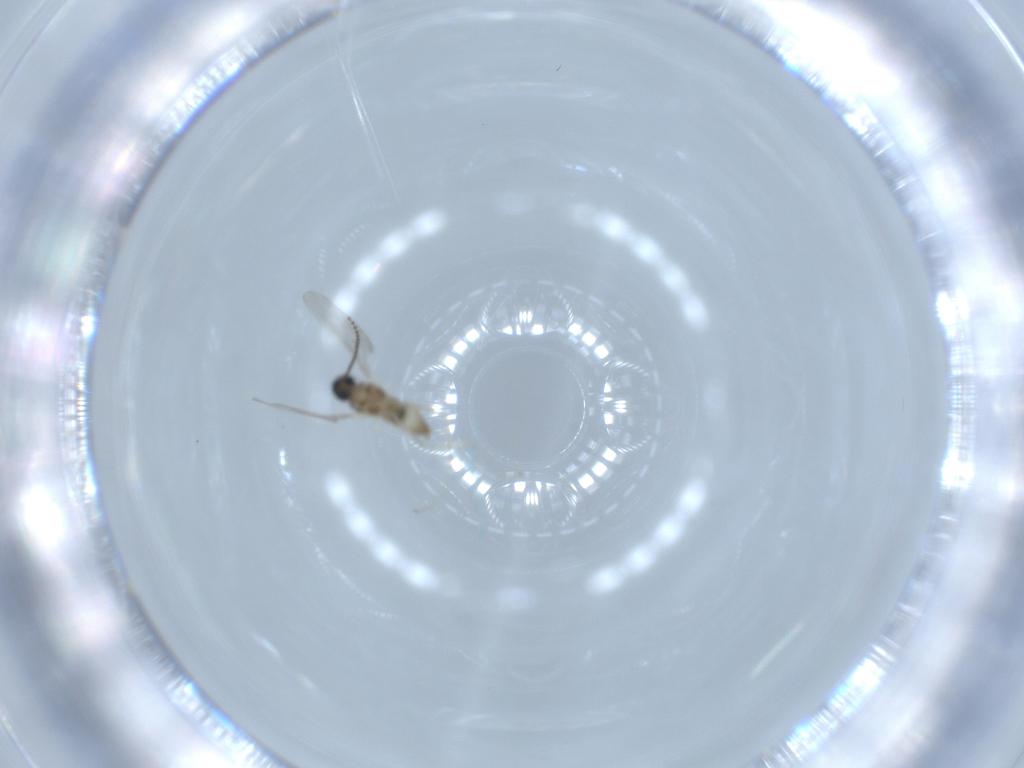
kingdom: Animalia
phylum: Arthropoda
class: Insecta
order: Diptera
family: Cecidomyiidae
